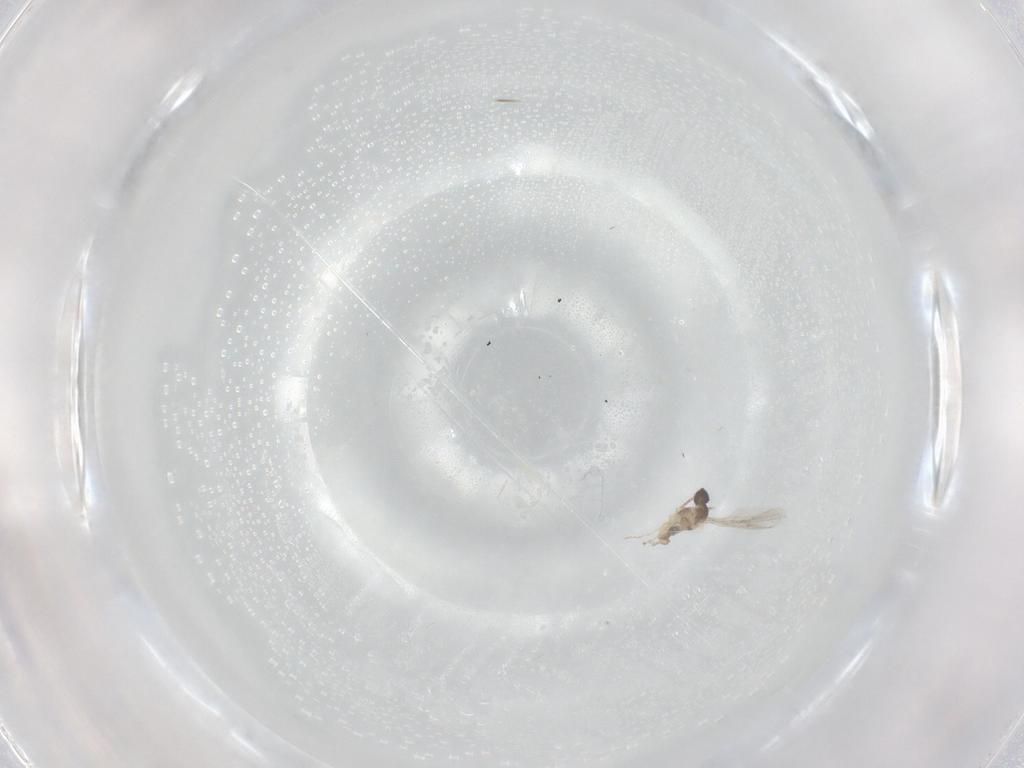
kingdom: Animalia
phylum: Arthropoda
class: Insecta
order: Diptera
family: Cecidomyiidae
